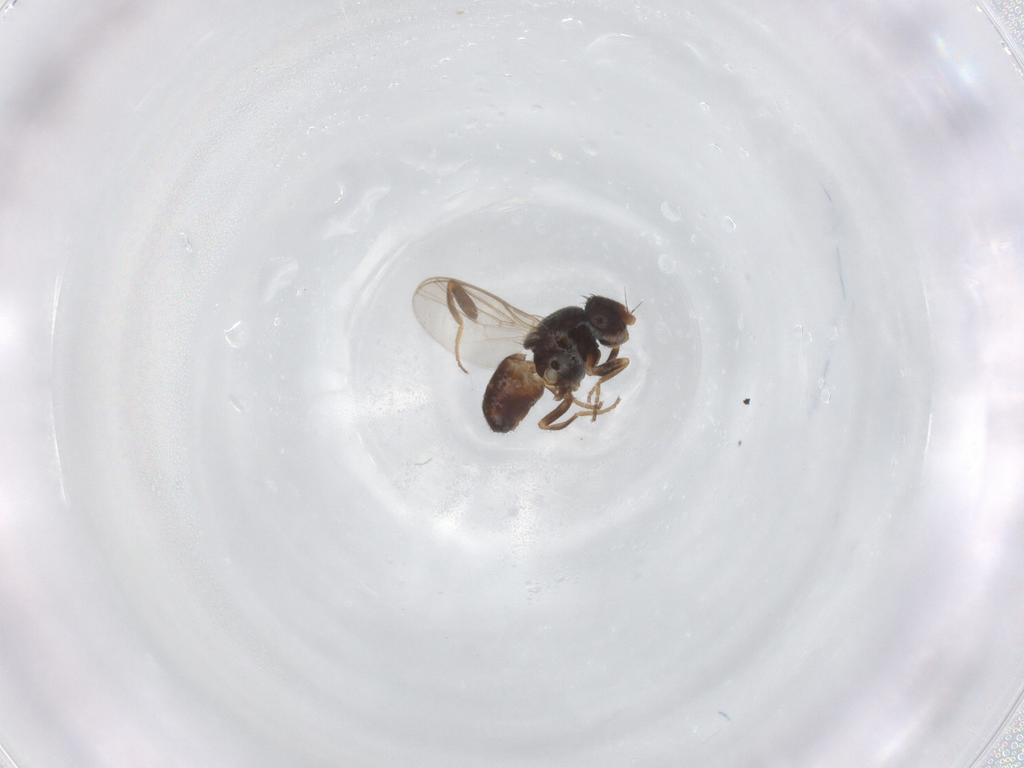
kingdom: Animalia
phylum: Arthropoda
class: Insecta
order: Diptera
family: Chloropidae
